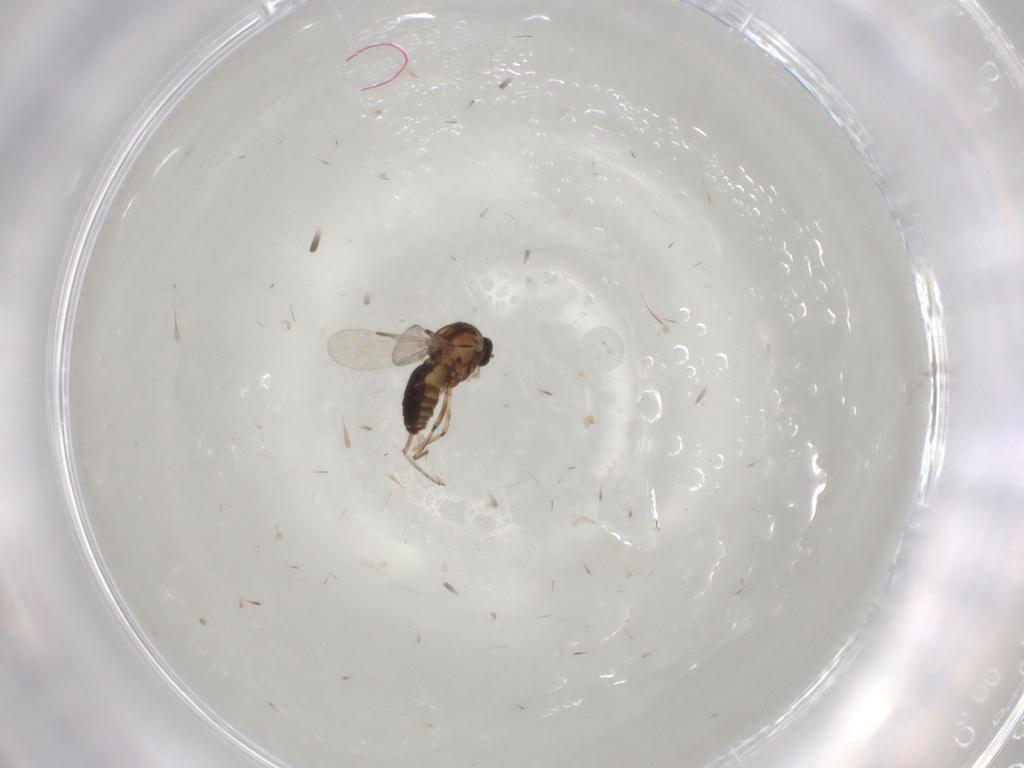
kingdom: Animalia
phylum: Arthropoda
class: Insecta
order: Diptera
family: Ceratopogonidae
